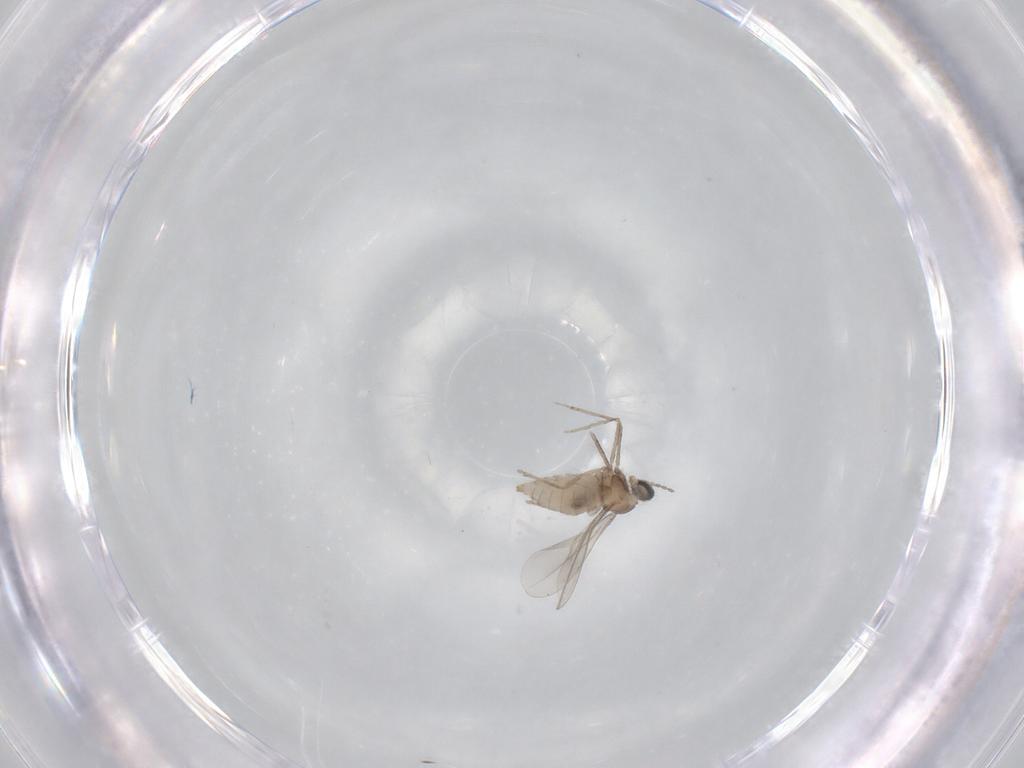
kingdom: Animalia
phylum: Arthropoda
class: Insecta
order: Diptera
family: Cecidomyiidae
